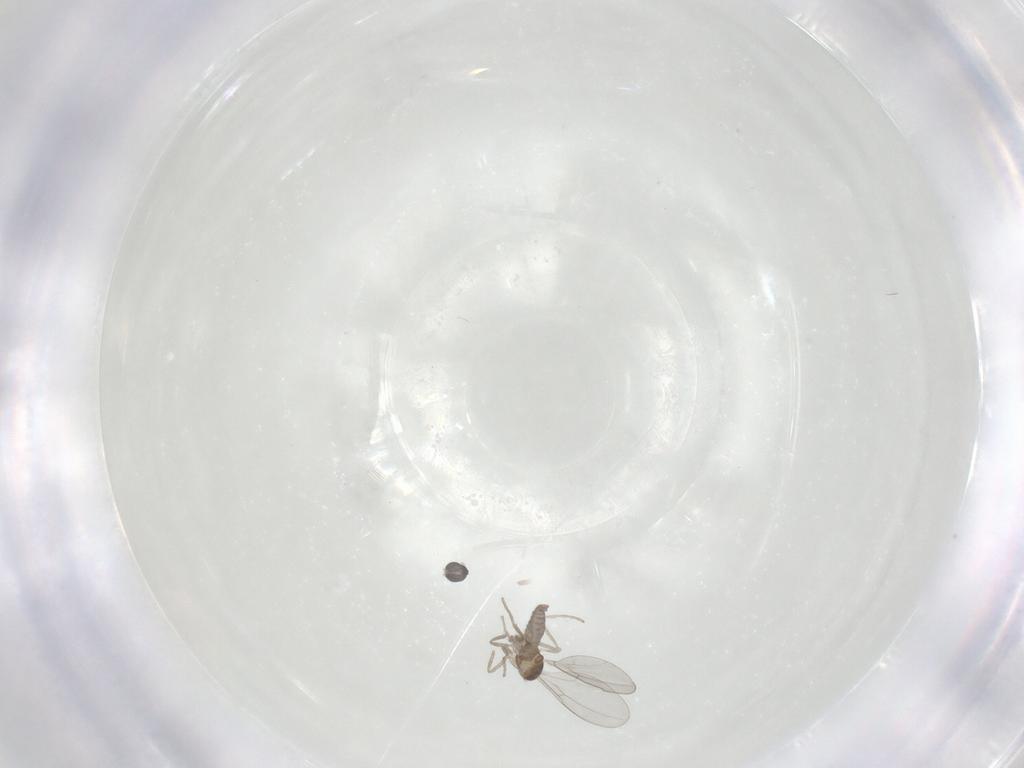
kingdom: Animalia
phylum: Arthropoda
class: Insecta
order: Diptera
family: Cecidomyiidae
